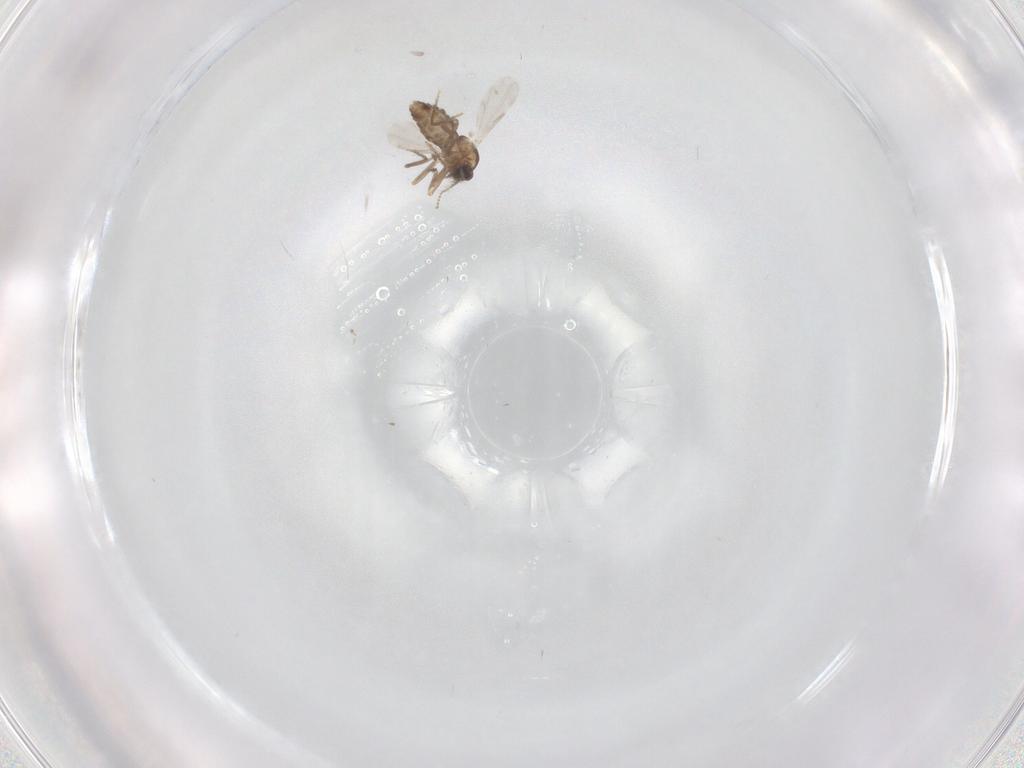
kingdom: Animalia
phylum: Arthropoda
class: Insecta
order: Diptera
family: Ceratopogonidae
